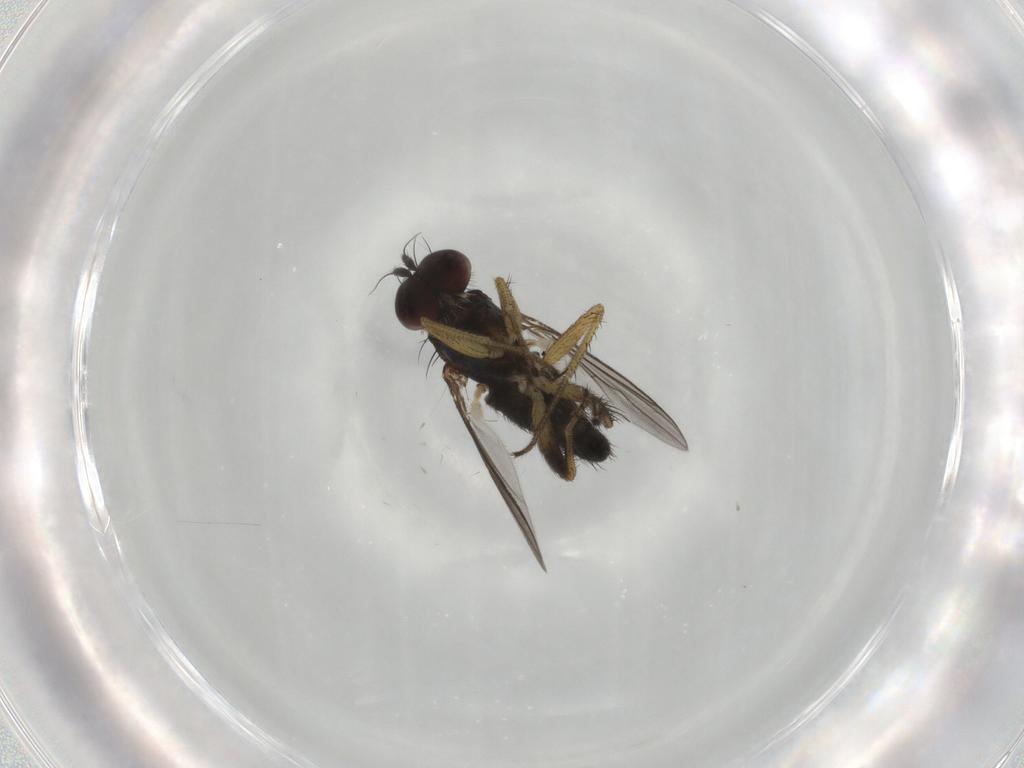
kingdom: Animalia
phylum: Arthropoda
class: Insecta
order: Diptera
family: Dolichopodidae
